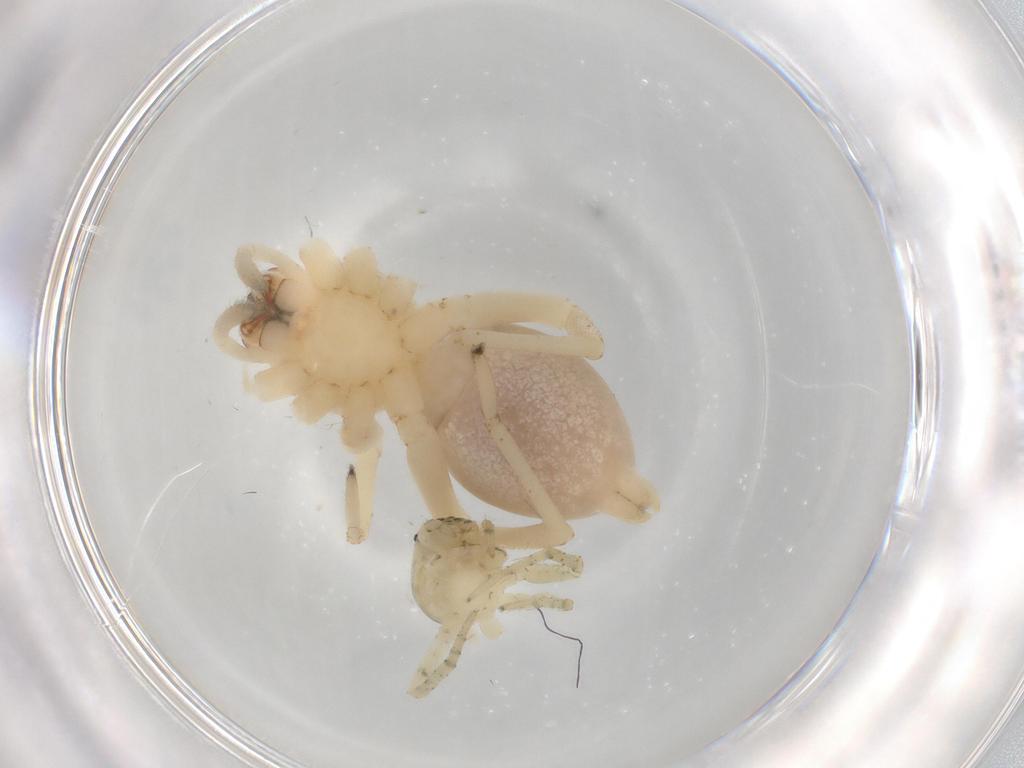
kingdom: Animalia
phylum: Arthropoda
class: Arachnida
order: Araneae
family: Cheiracanthiidae
